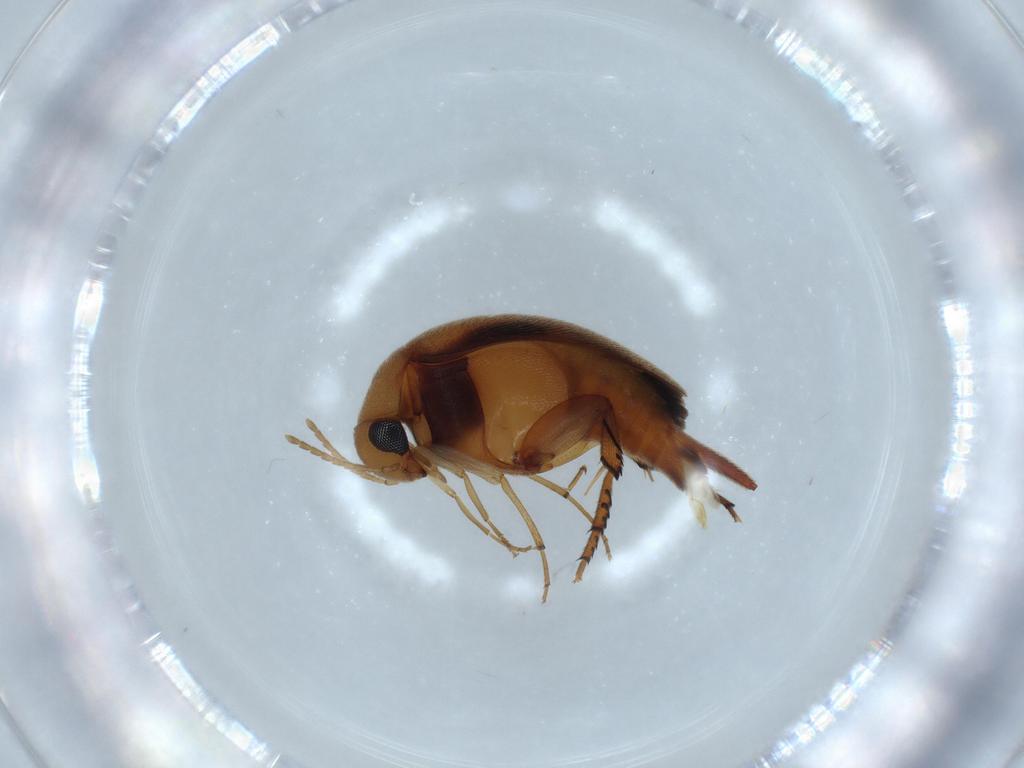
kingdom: Animalia
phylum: Arthropoda
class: Insecta
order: Coleoptera
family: Mordellidae
